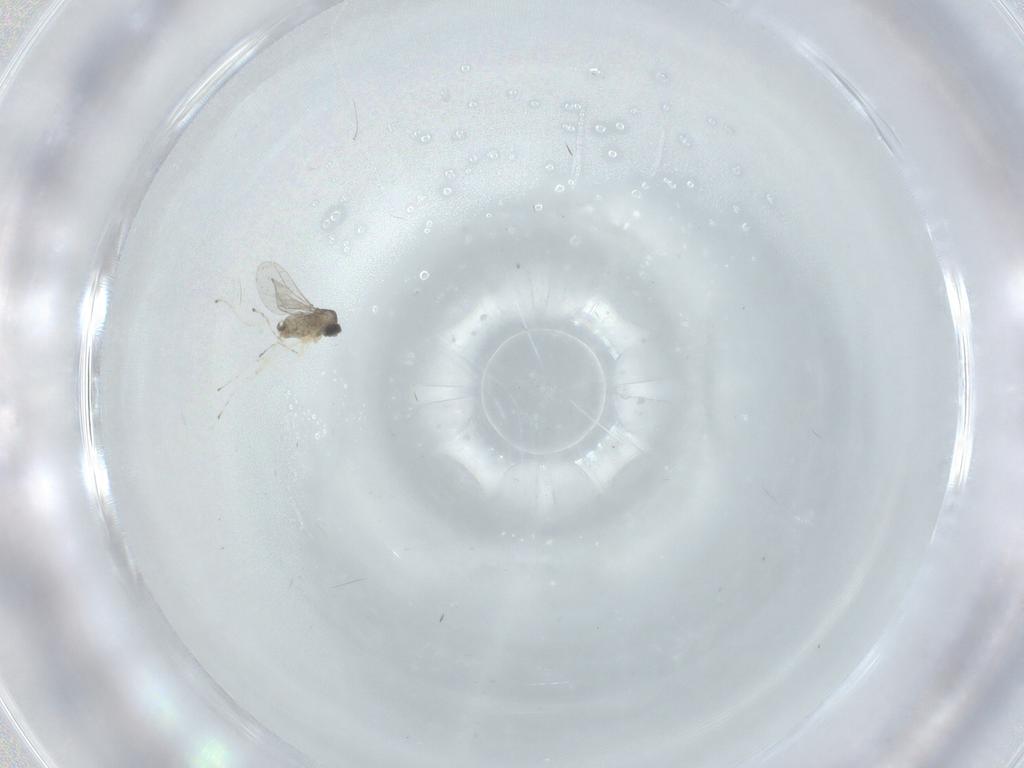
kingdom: Animalia
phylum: Arthropoda
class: Insecta
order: Diptera
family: Cecidomyiidae
